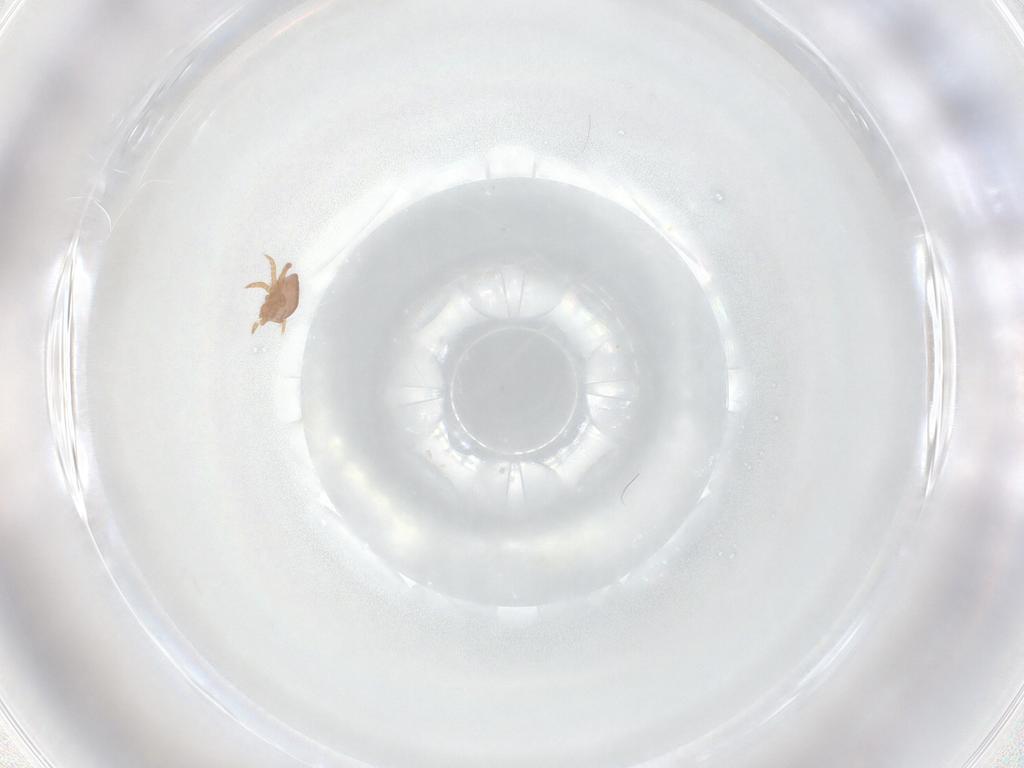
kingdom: Animalia
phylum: Arthropoda
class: Arachnida
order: Mesostigmata
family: Eviphididae
